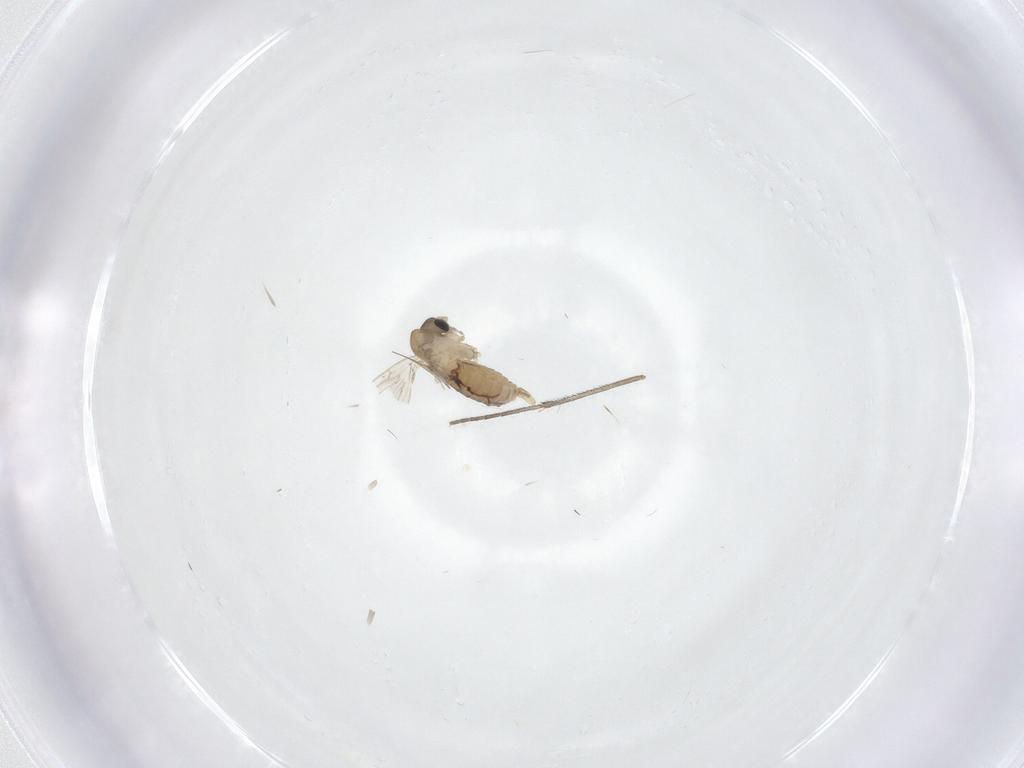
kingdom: Animalia
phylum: Arthropoda
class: Insecta
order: Diptera
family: Sciaridae
